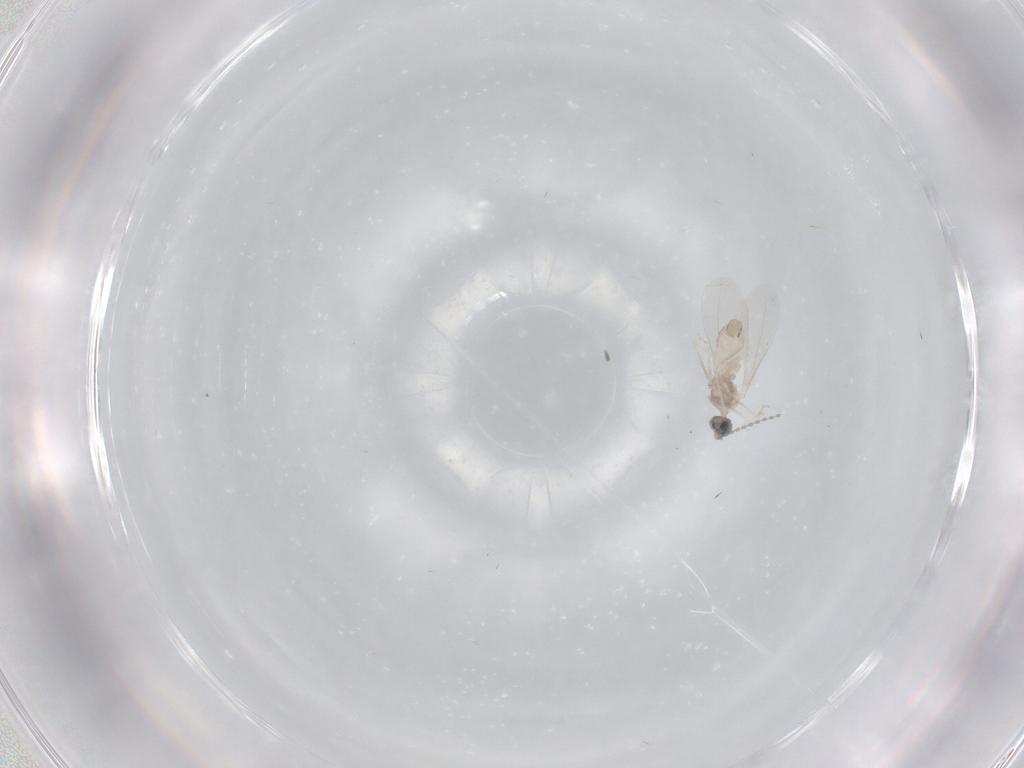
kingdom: Animalia
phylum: Arthropoda
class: Insecta
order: Diptera
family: Cecidomyiidae
